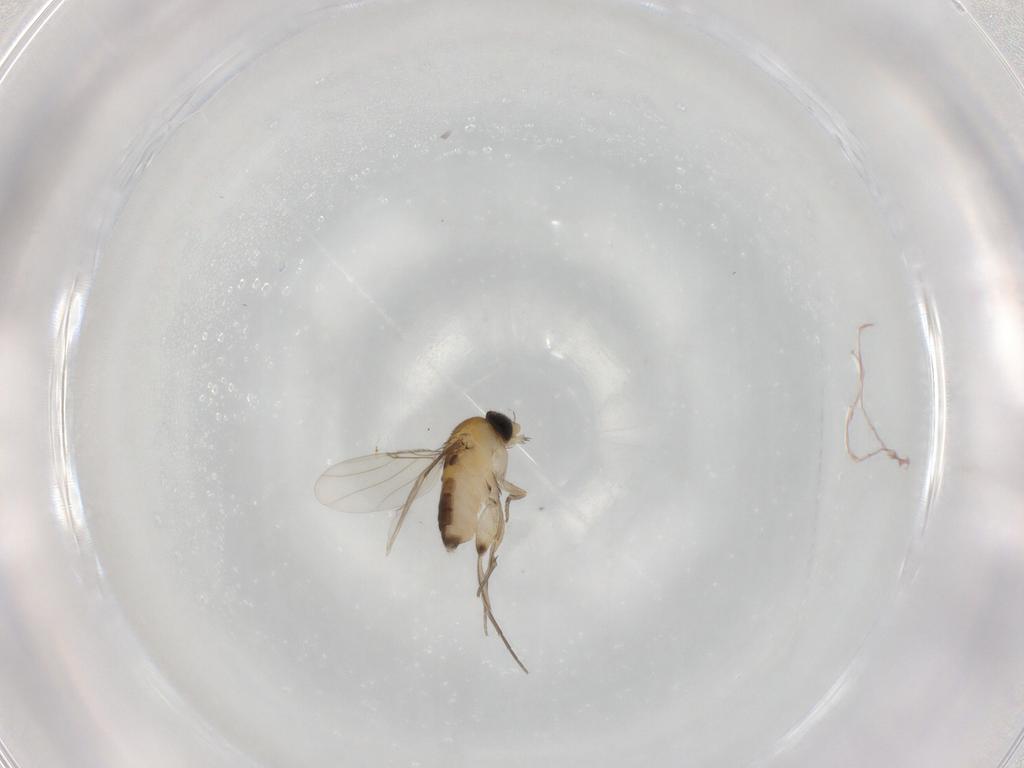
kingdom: Animalia
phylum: Arthropoda
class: Insecta
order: Diptera
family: Phoridae
